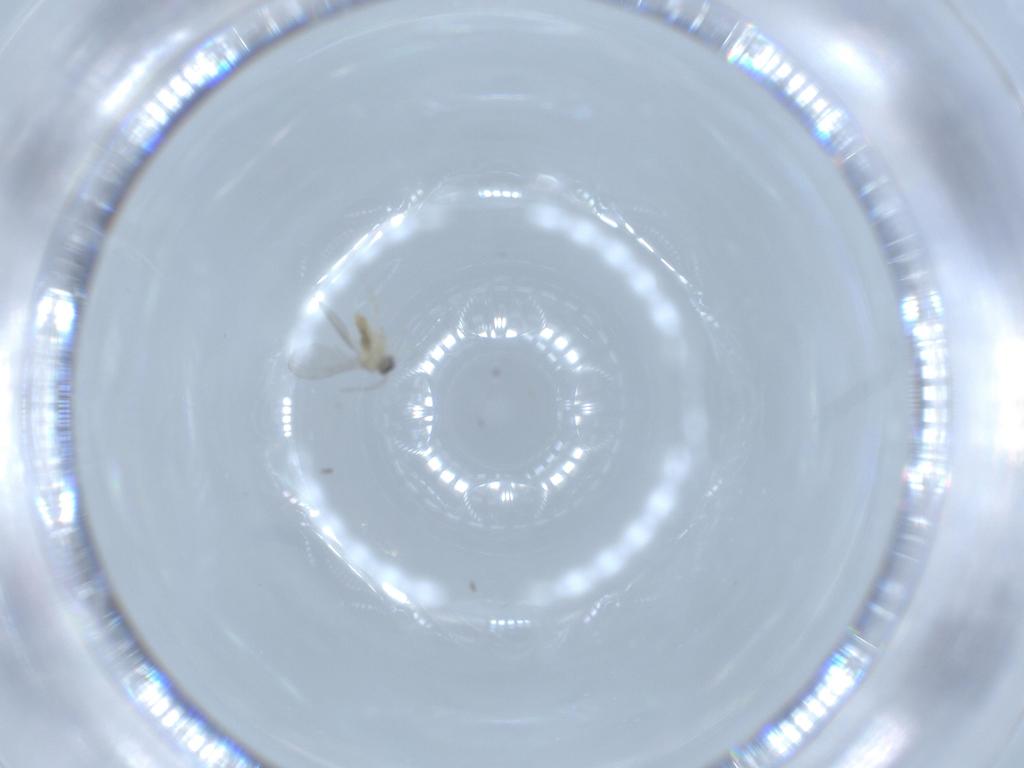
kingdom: Animalia
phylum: Arthropoda
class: Insecta
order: Diptera
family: Cecidomyiidae
